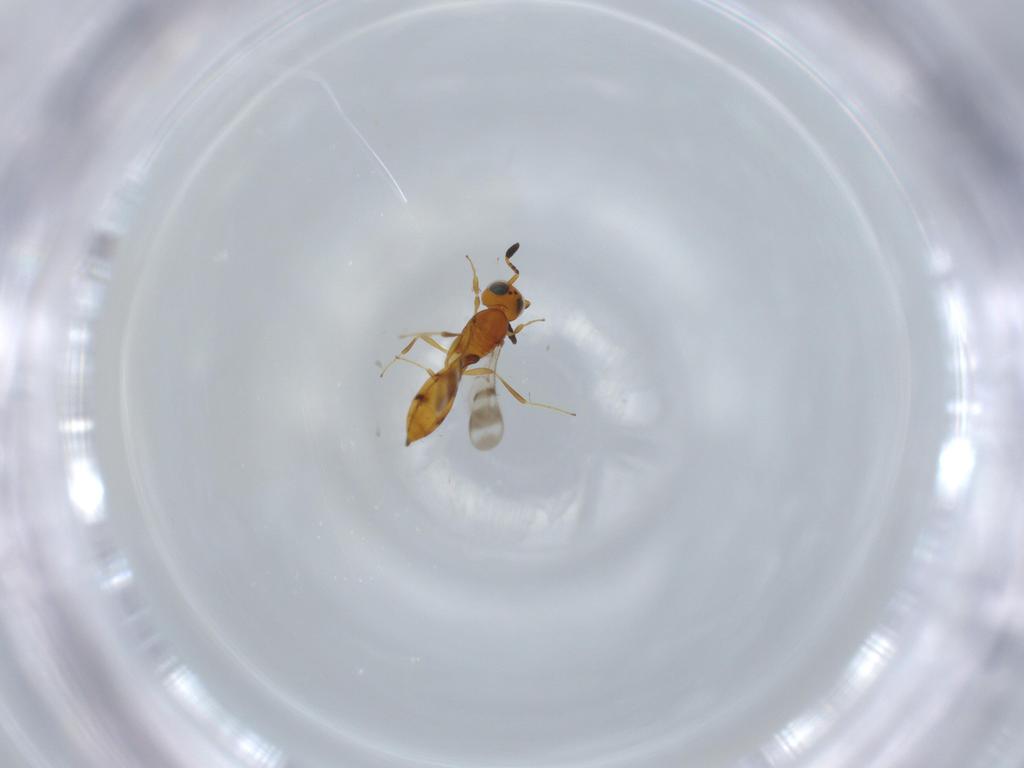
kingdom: Animalia
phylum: Arthropoda
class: Insecta
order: Hymenoptera
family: Scelionidae
